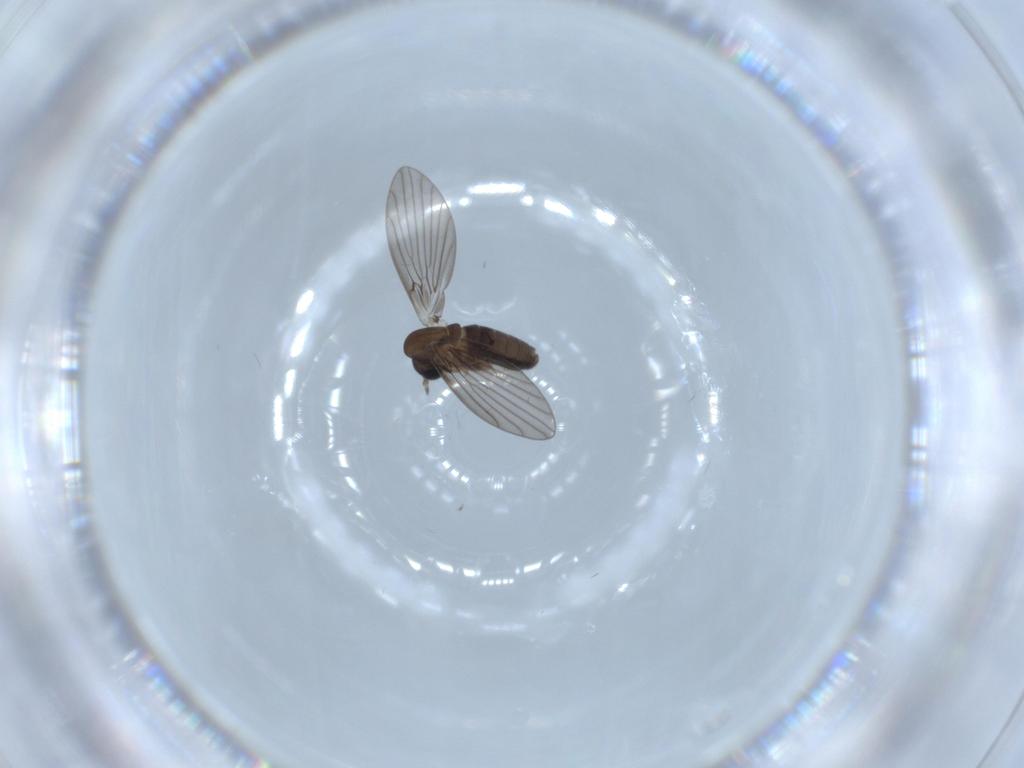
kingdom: Animalia
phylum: Arthropoda
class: Insecta
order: Diptera
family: Psychodidae
